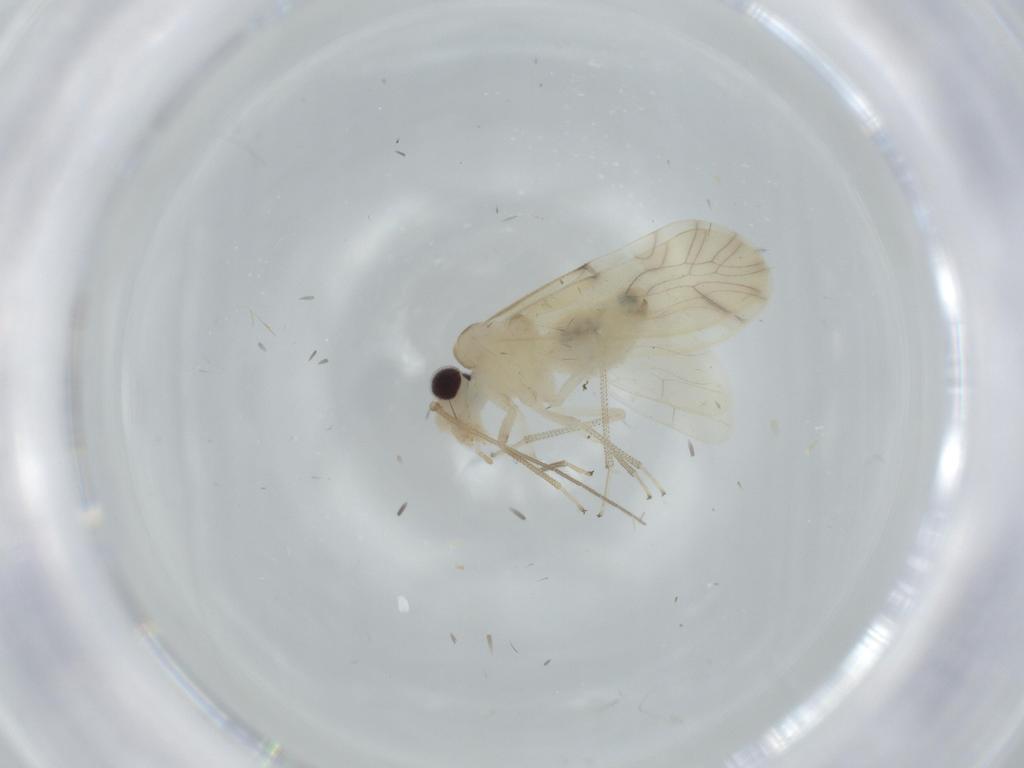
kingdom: Animalia
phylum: Arthropoda
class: Insecta
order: Psocodea
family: Caeciliusidae
